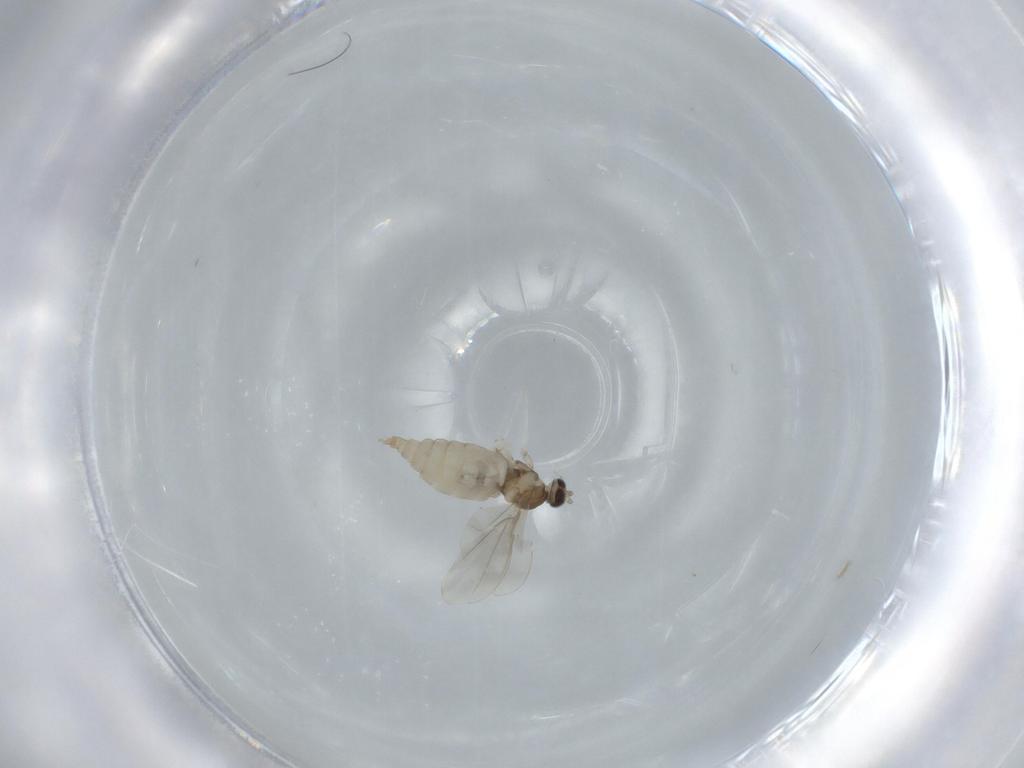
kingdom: Animalia
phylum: Arthropoda
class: Insecta
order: Diptera
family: Cecidomyiidae
